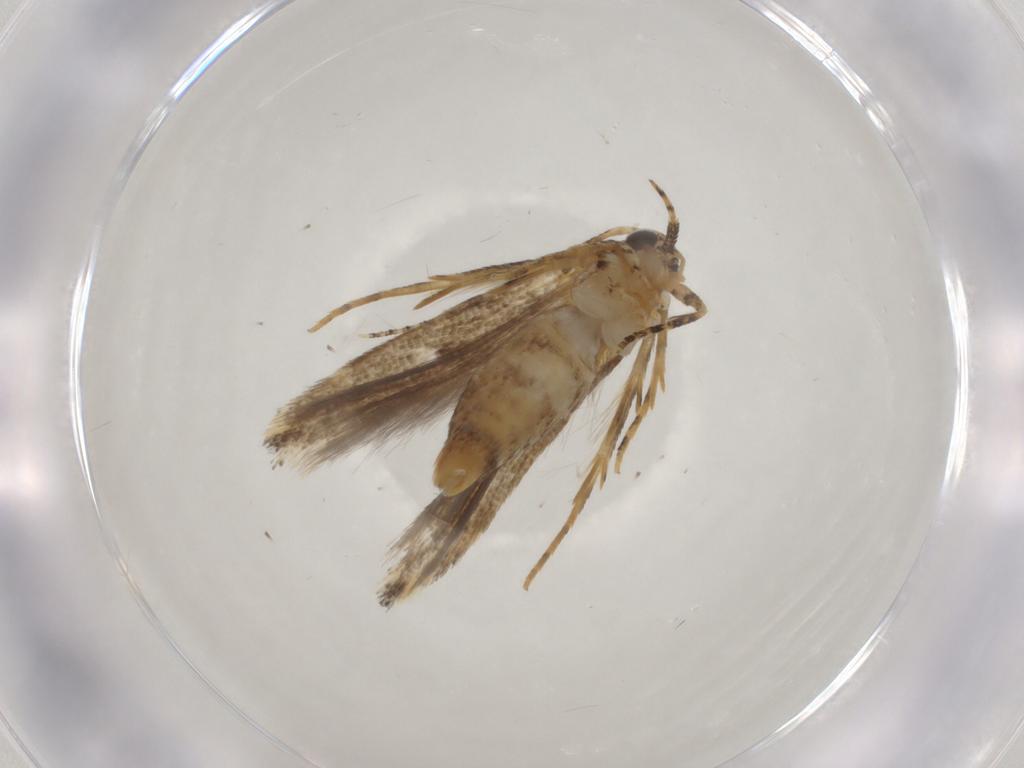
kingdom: Animalia
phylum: Arthropoda
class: Insecta
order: Lepidoptera
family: Gelechiidae
